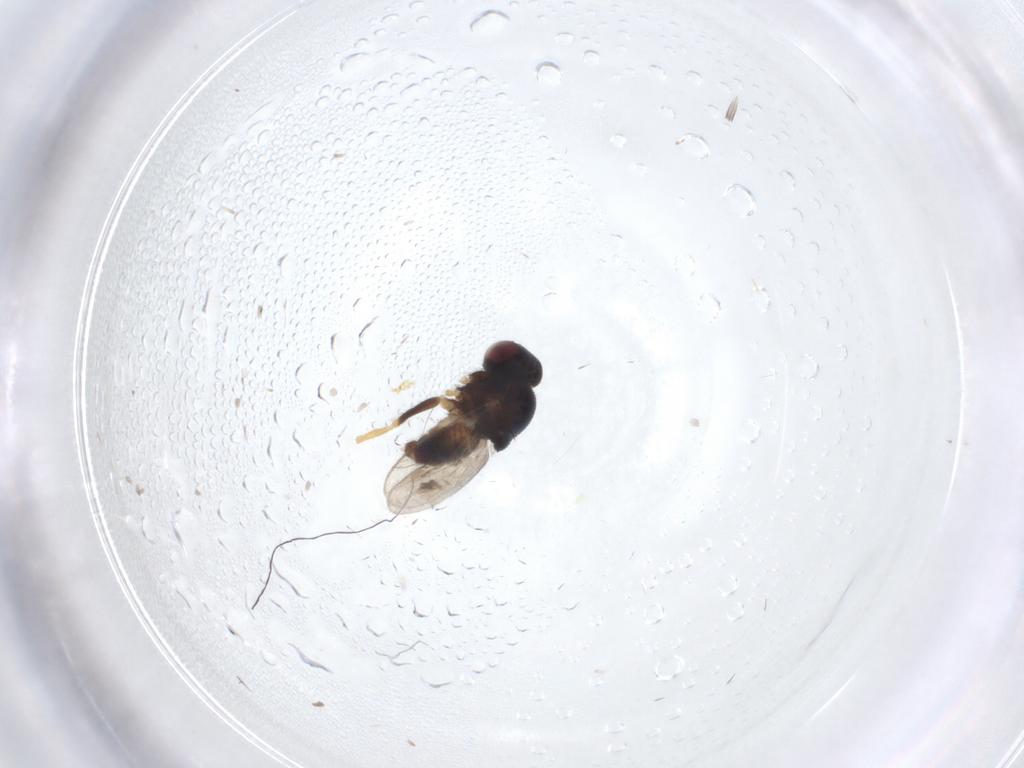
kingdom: Animalia
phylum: Arthropoda
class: Insecta
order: Diptera
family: Chloropidae
